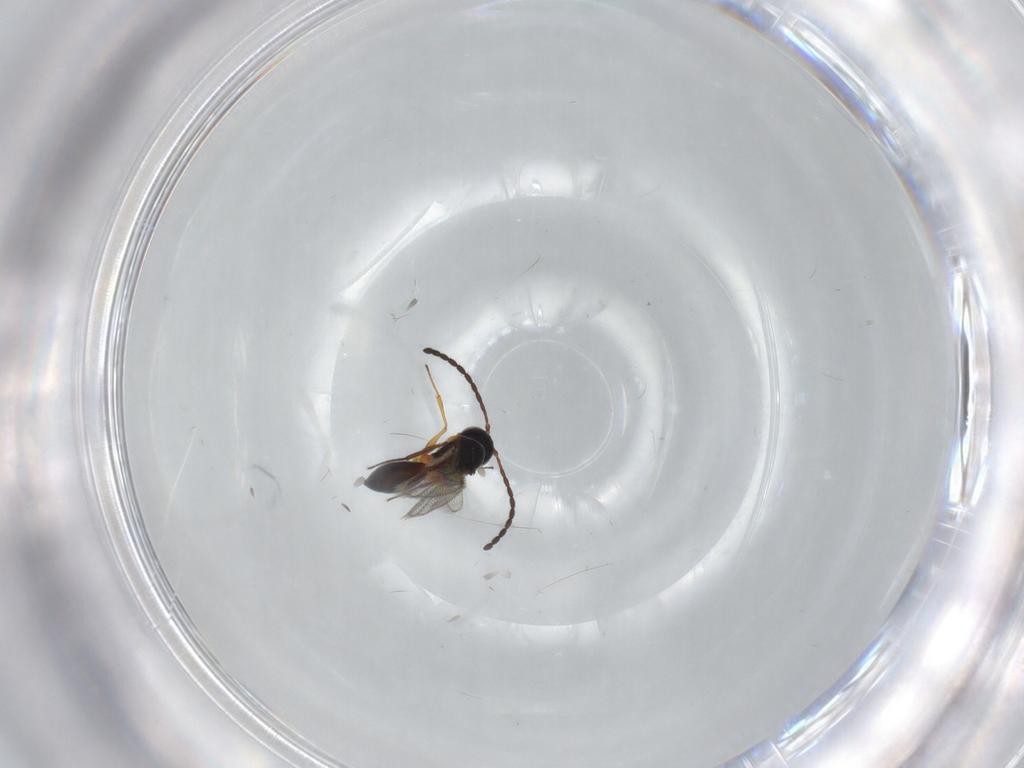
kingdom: Animalia
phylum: Arthropoda
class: Insecta
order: Hymenoptera
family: Figitidae
